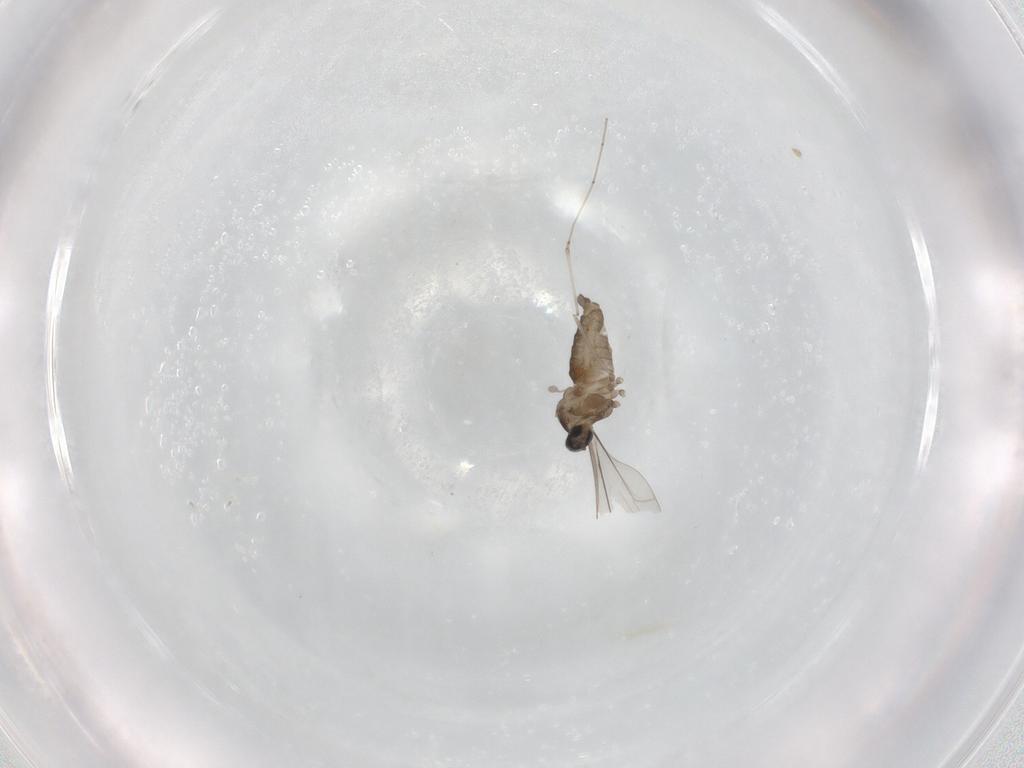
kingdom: Animalia
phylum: Arthropoda
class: Insecta
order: Diptera
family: Cecidomyiidae
